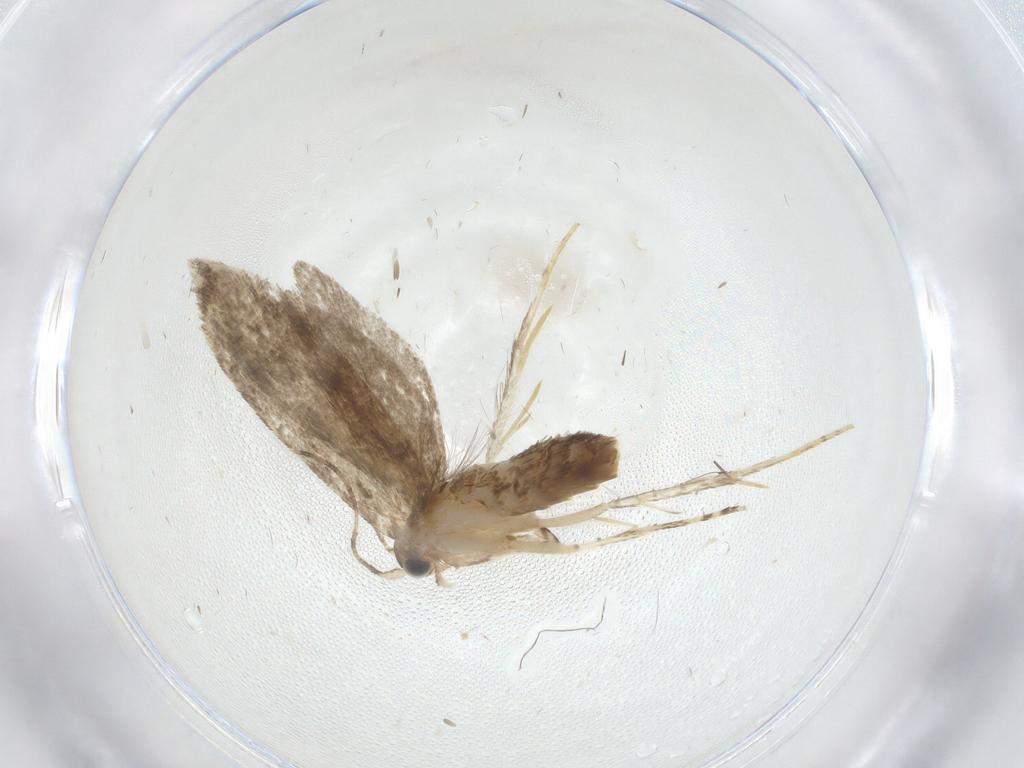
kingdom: Animalia
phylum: Arthropoda
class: Insecta
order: Lepidoptera
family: Tineidae
